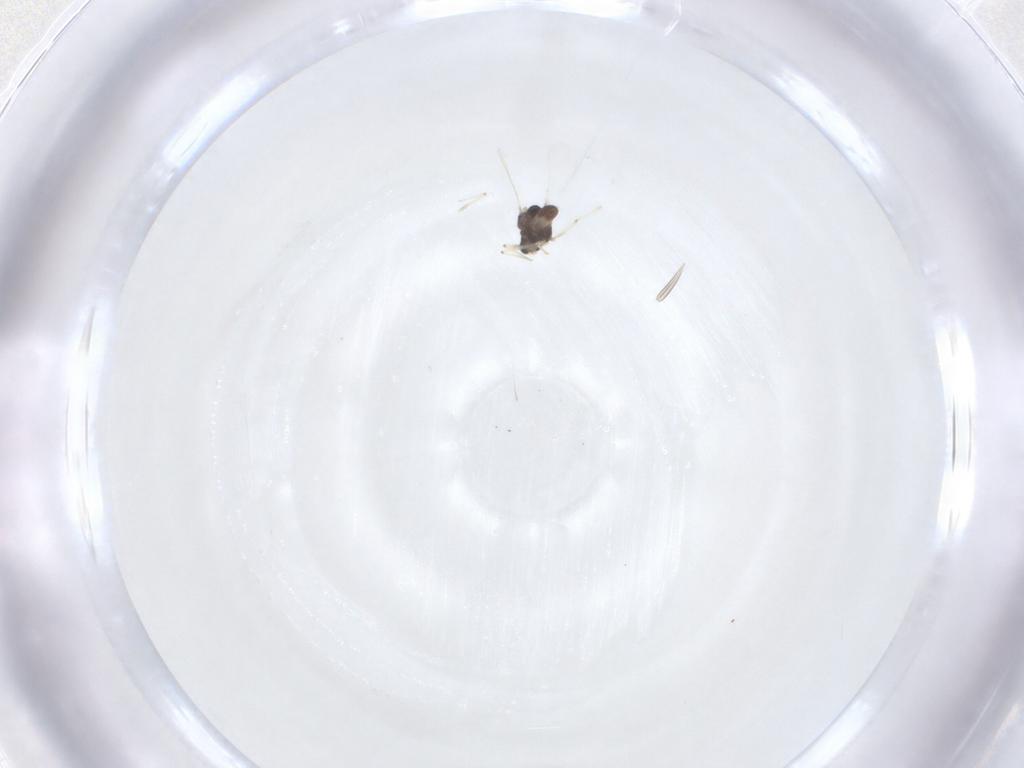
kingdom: Animalia
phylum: Arthropoda
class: Insecta
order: Diptera
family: Chironomidae
